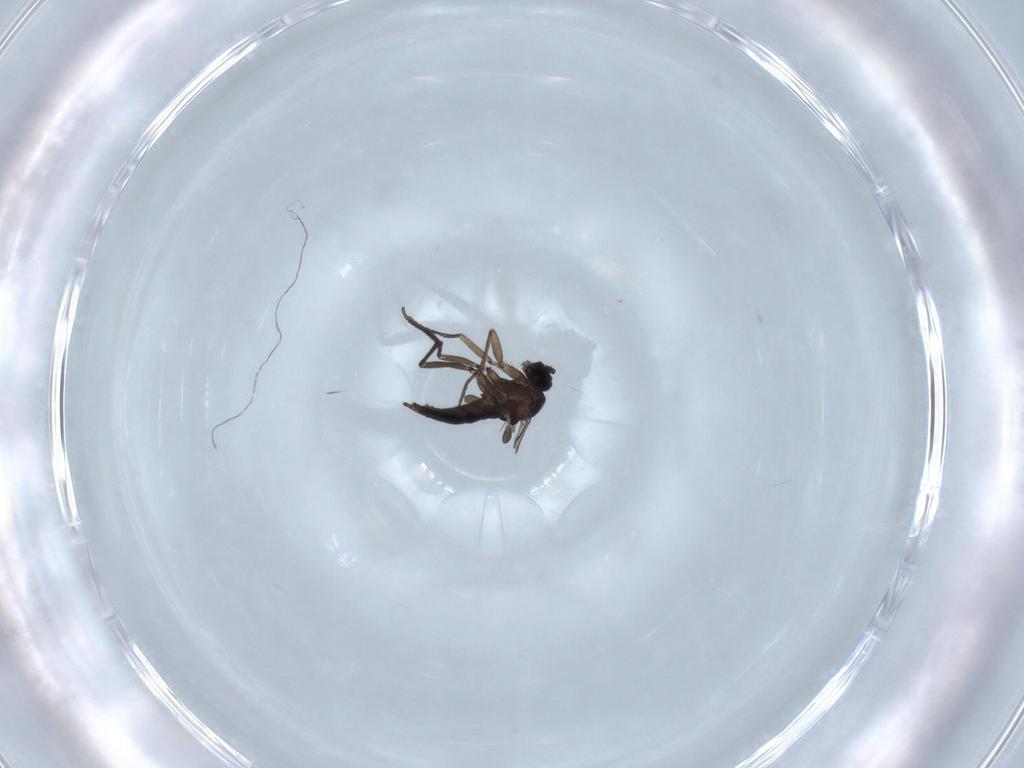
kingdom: Animalia
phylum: Arthropoda
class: Insecta
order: Diptera
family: Sciaridae
